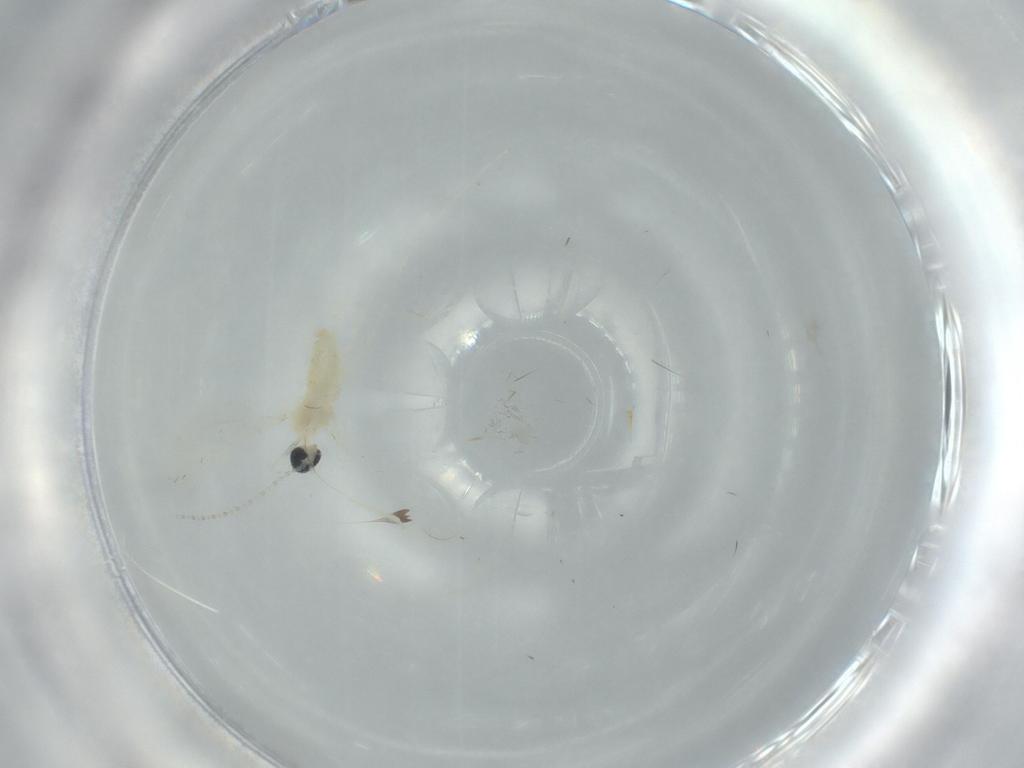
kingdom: Animalia
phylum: Arthropoda
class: Insecta
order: Diptera
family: Cecidomyiidae
